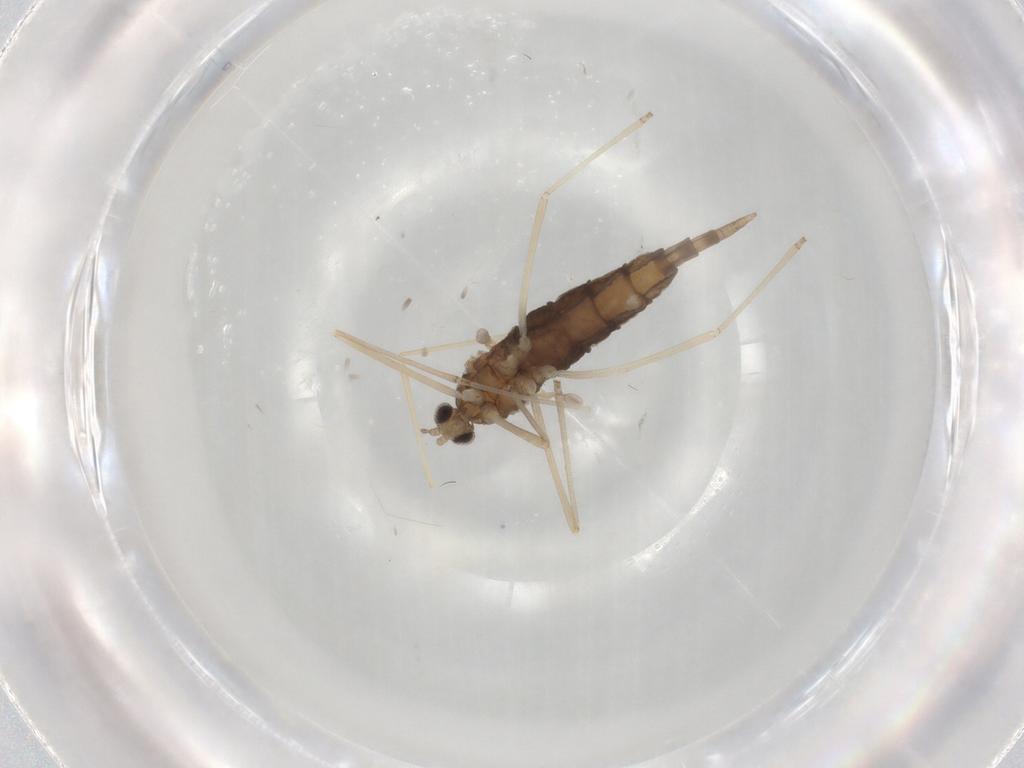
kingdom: Animalia
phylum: Arthropoda
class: Insecta
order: Diptera
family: Cecidomyiidae
